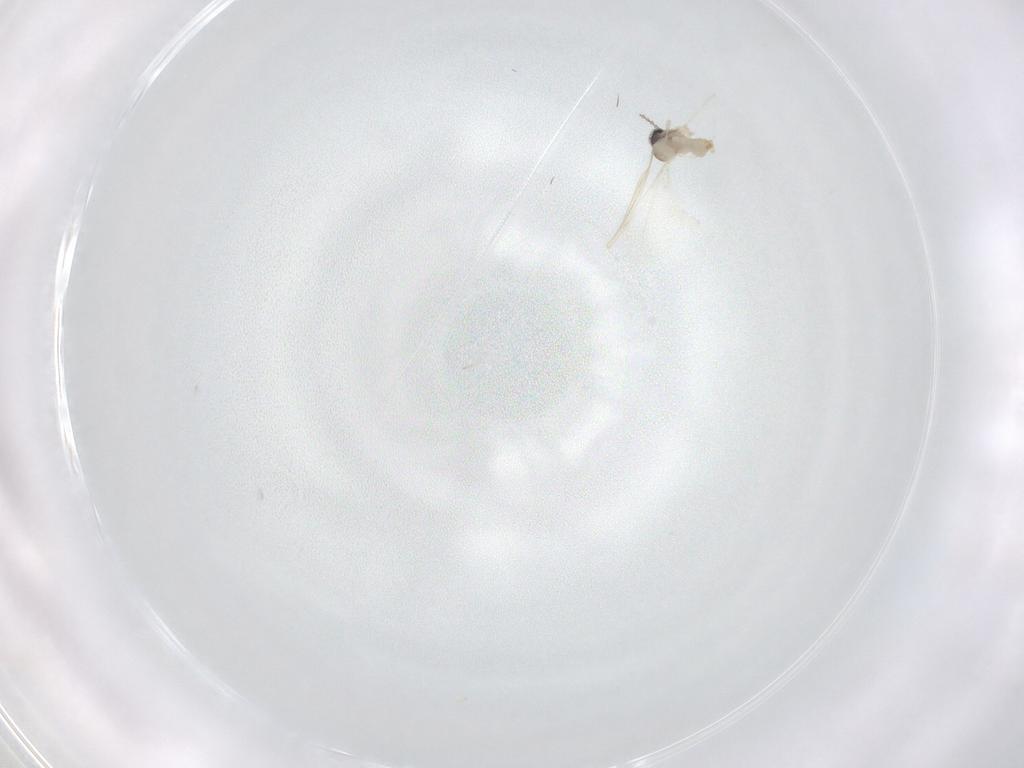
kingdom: Animalia
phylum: Arthropoda
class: Insecta
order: Diptera
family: Cecidomyiidae
